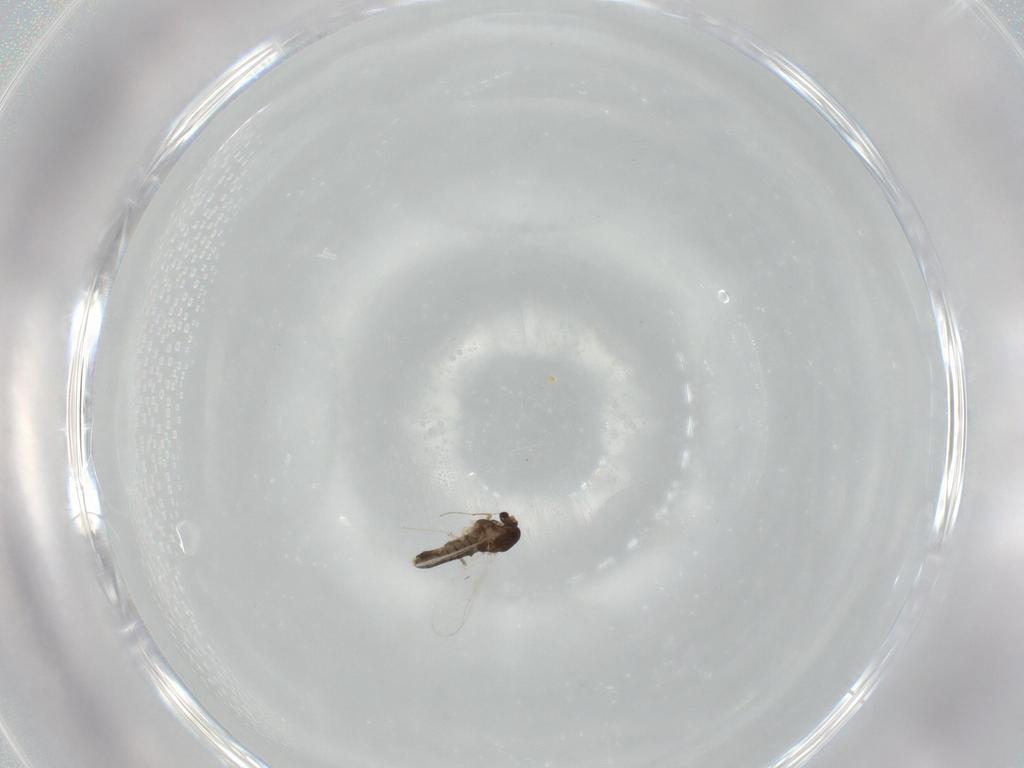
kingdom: Animalia
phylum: Arthropoda
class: Insecta
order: Diptera
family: Chironomidae
